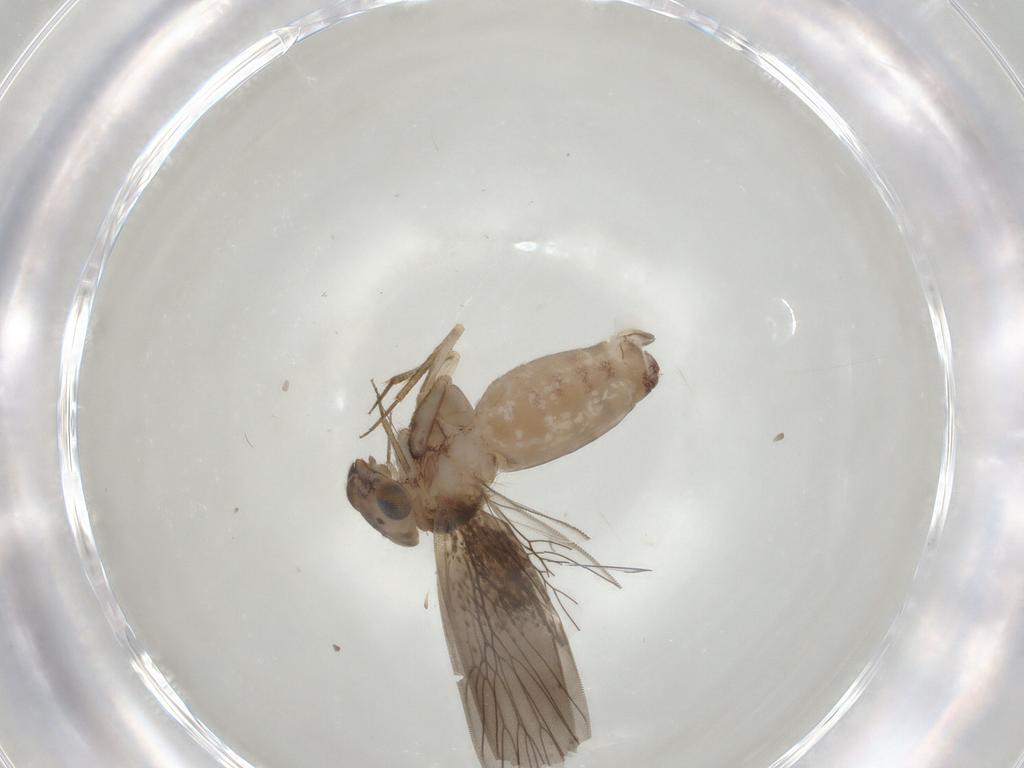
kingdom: Animalia
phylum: Arthropoda
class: Insecta
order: Psocodea
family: Lepidopsocidae
